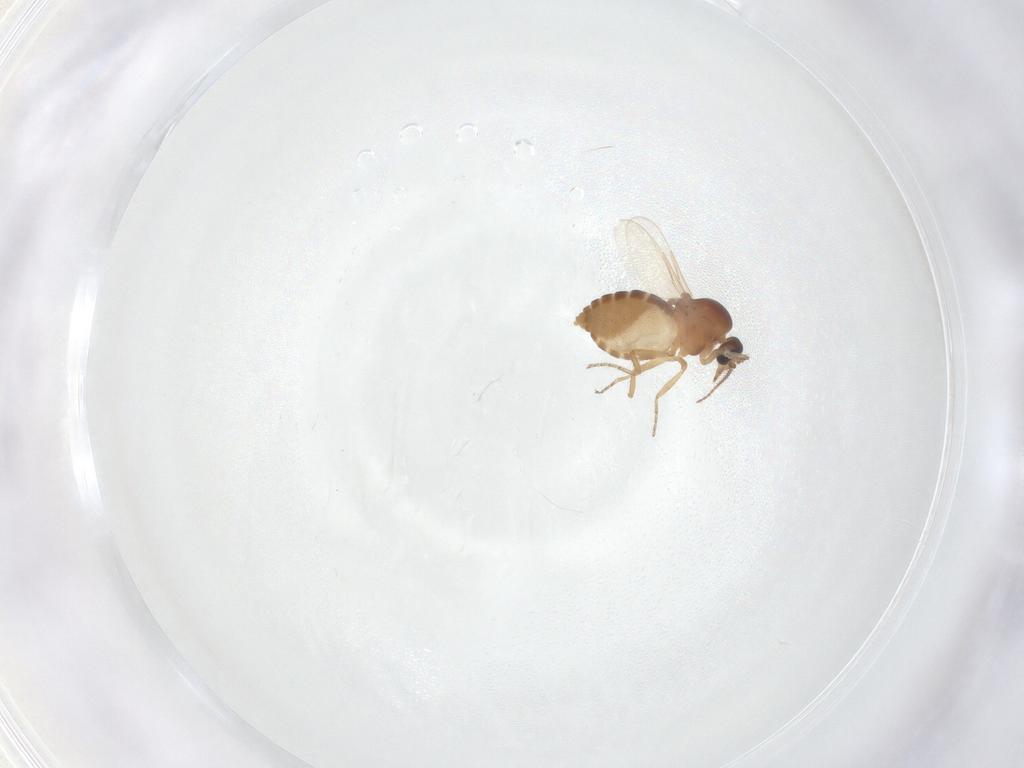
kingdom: Animalia
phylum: Arthropoda
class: Insecta
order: Diptera
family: Ceratopogonidae
